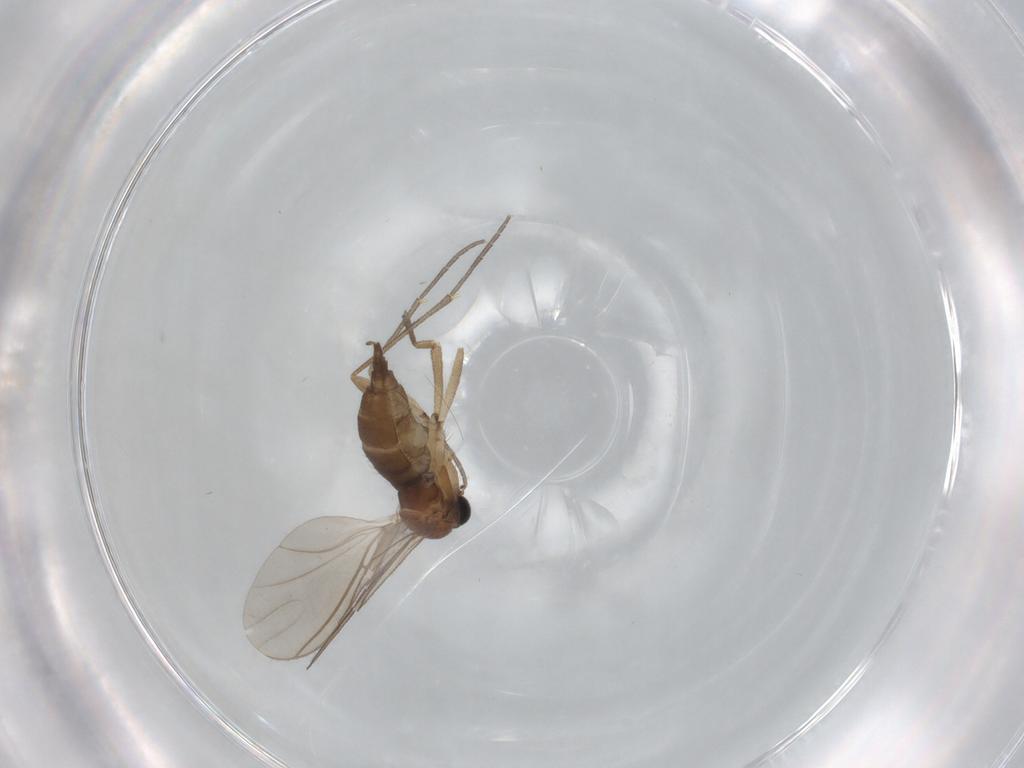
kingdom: Animalia
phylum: Arthropoda
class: Insecta
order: Diptera
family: Sciaridae
